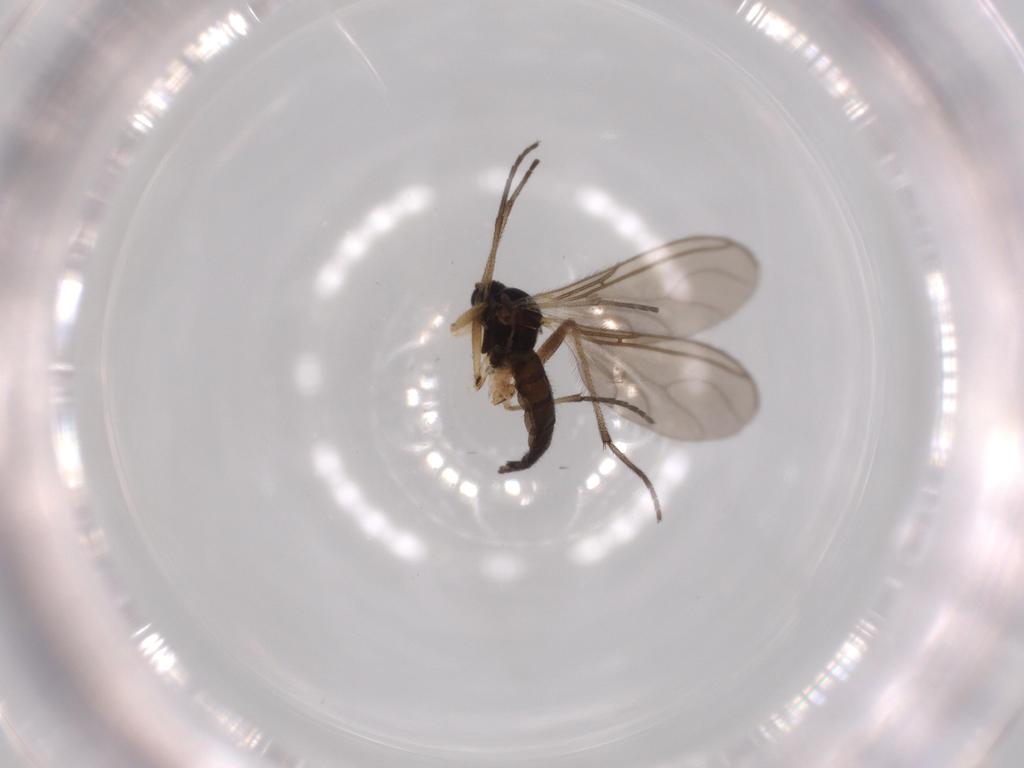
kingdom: Animalia
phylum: Arthropoda
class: Insecta
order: Diptera
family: Sciaridae
